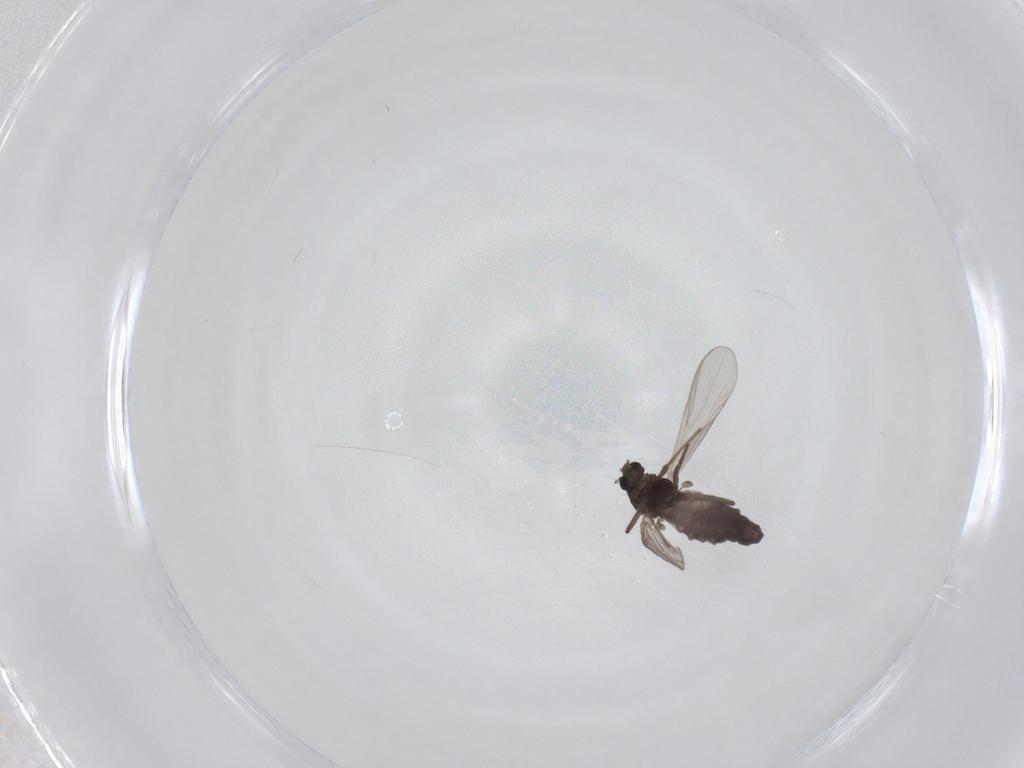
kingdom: Animalia
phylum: Arthropoda
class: Insecta
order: Diptera
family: Chironomidae
